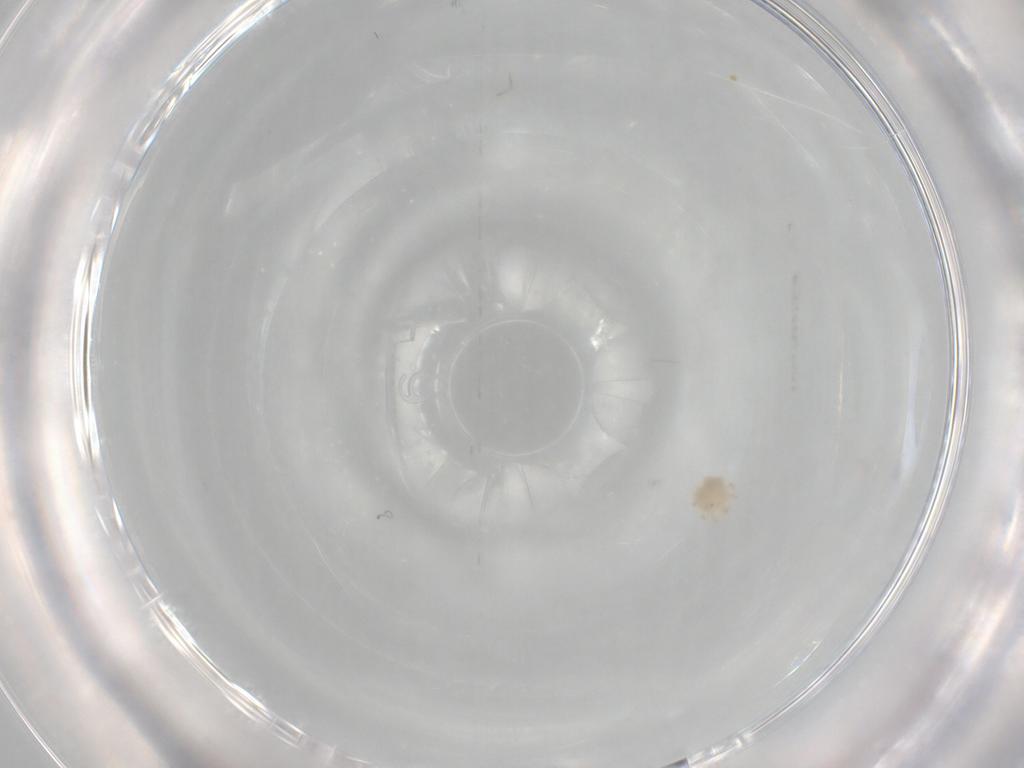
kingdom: Animalia
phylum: Arthropoda
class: Arachnida
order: Trombidiformes
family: Sperchontidae
